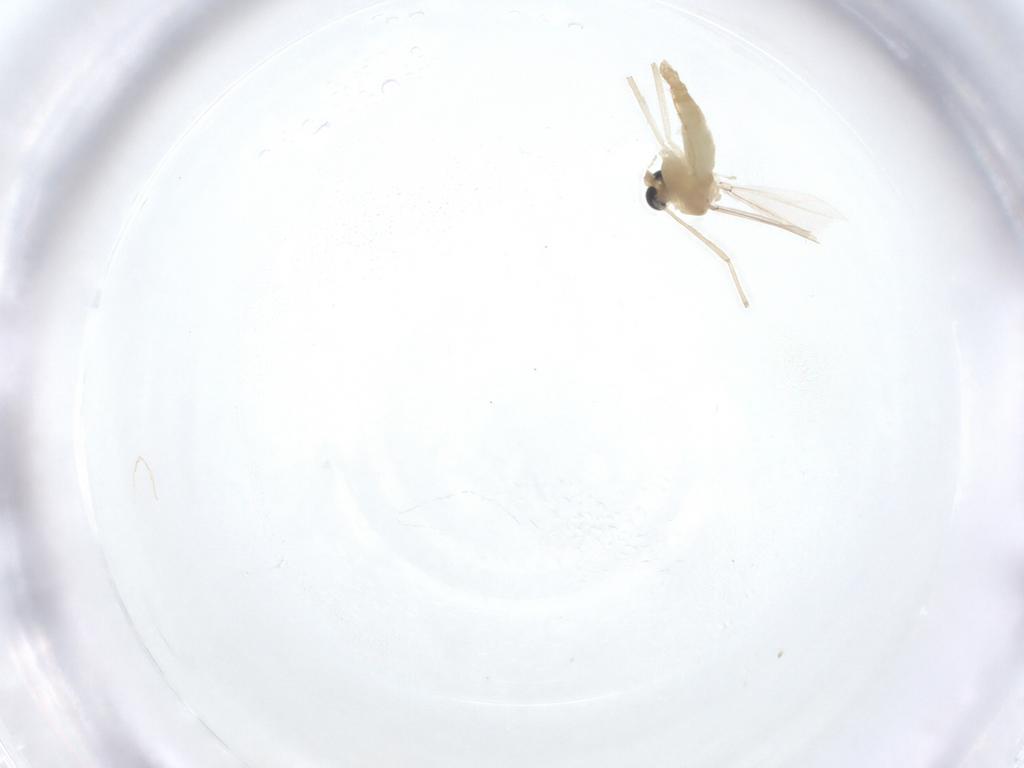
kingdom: Animalia
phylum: Arthropoda
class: Insecta
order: Diptera
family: Chironomidae
